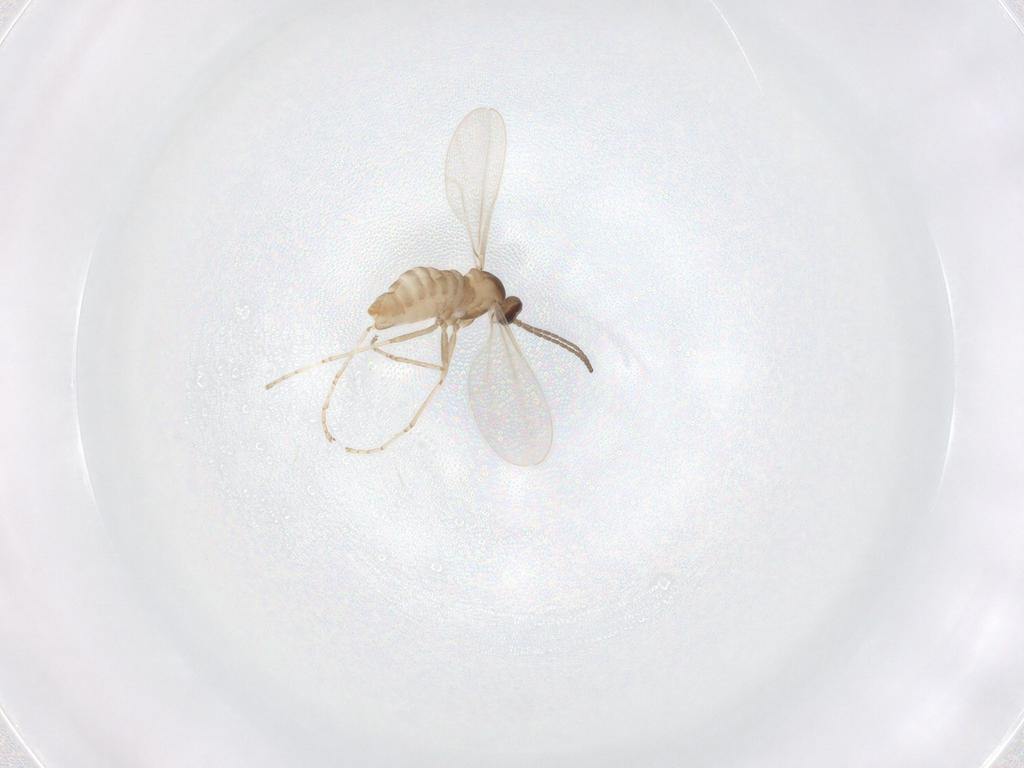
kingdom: Animalia
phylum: Arthropoda
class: Insecta
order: Diptera
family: Cecidomyiidae
